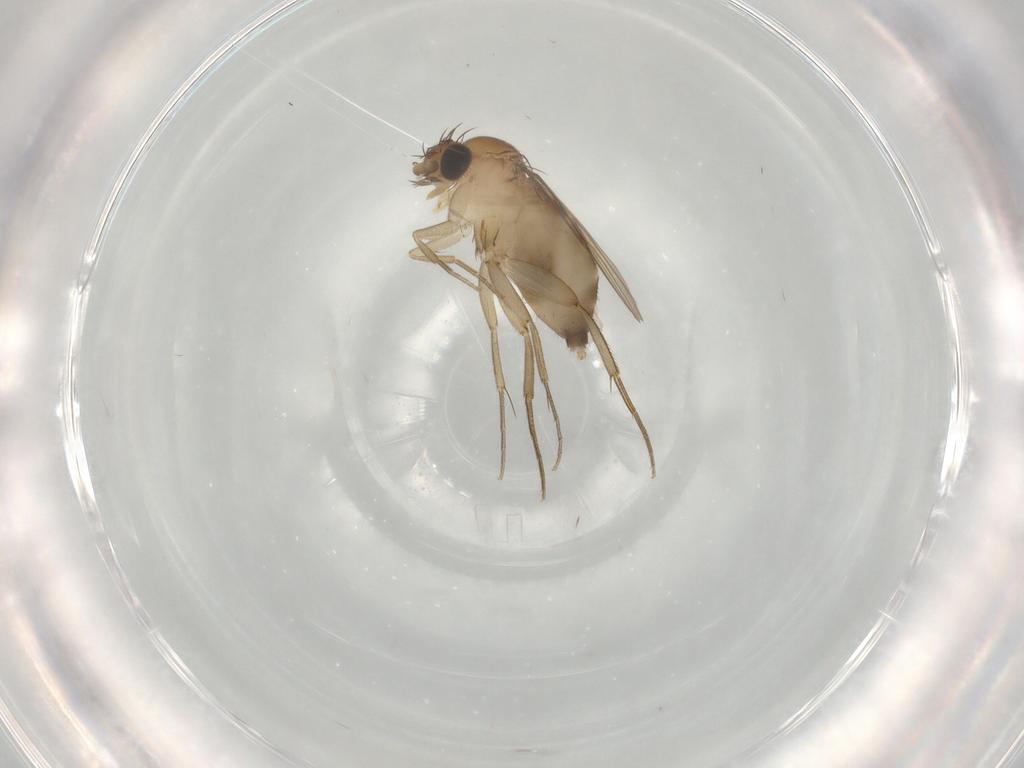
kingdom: Animalia
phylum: Arthropoda
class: Insecta
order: Diptera
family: Phoridae
